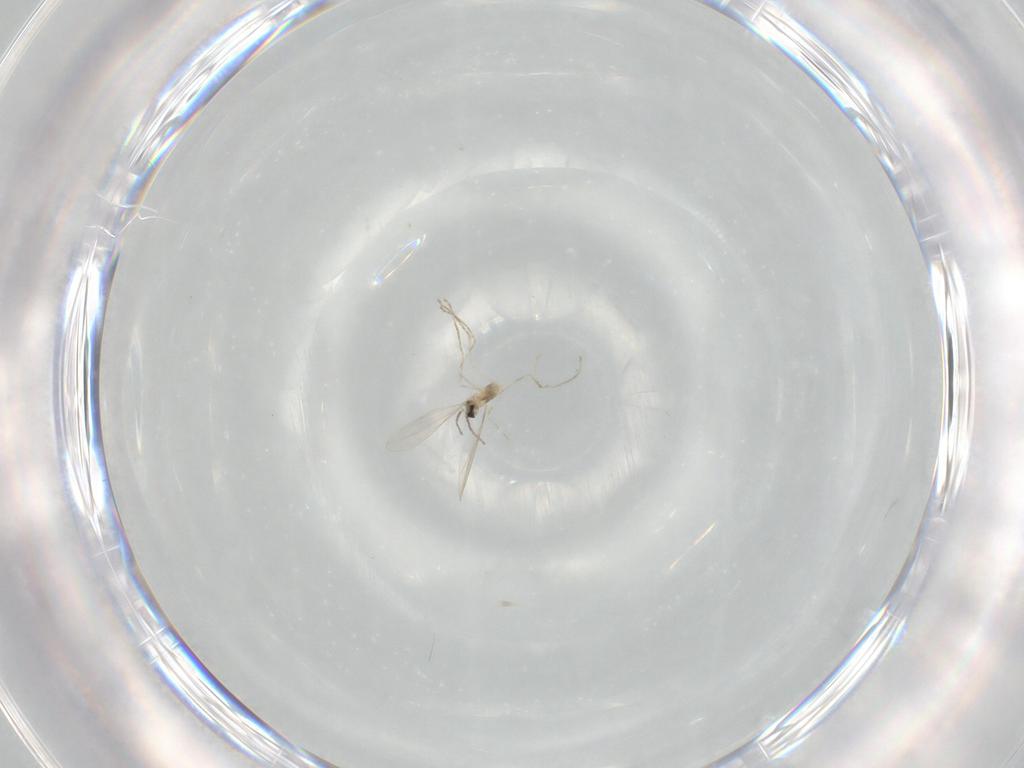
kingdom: Animalia
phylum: Arthropoda
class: Insecta
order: Diptera
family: Cecidomyiidae
